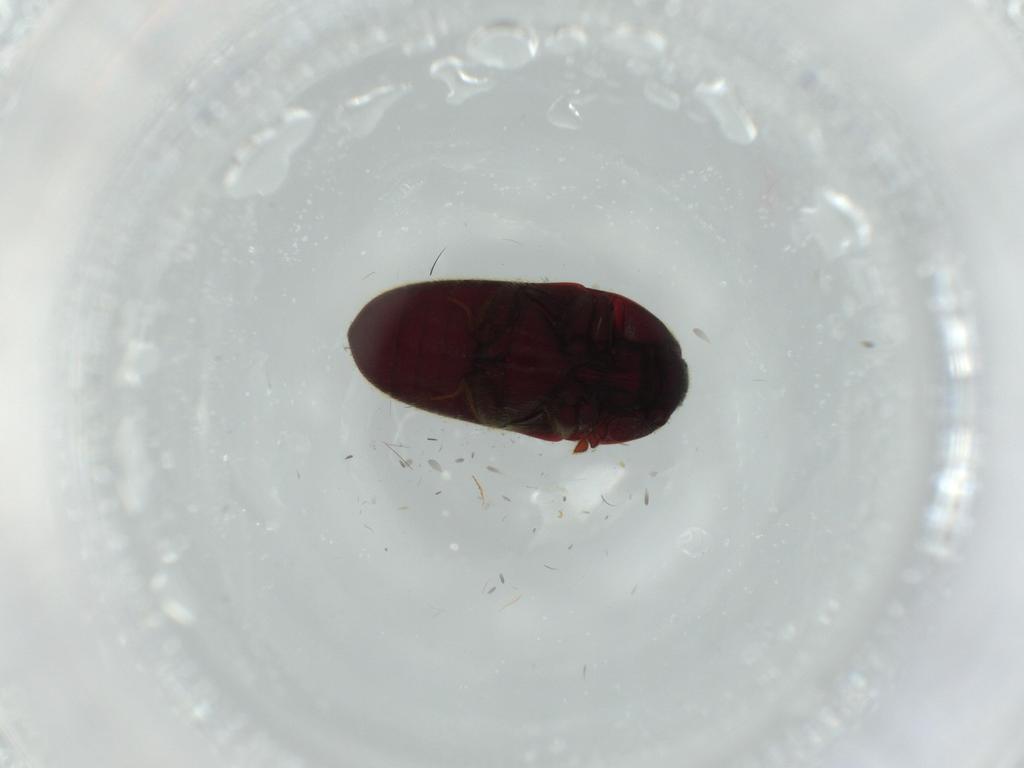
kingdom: Animalia
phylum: Arthropoda
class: Insecta
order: Coleoptera
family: Throscidae
